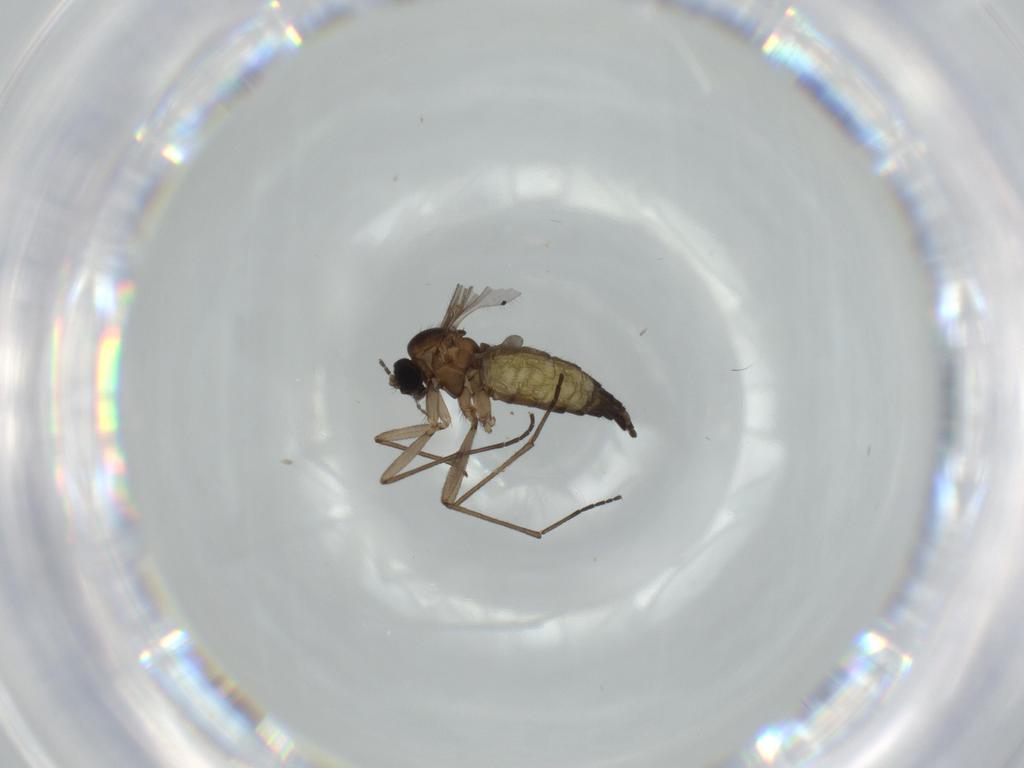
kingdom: Animalia
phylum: Arthropoda
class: Insecta
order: Diptera
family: Sciaridae
